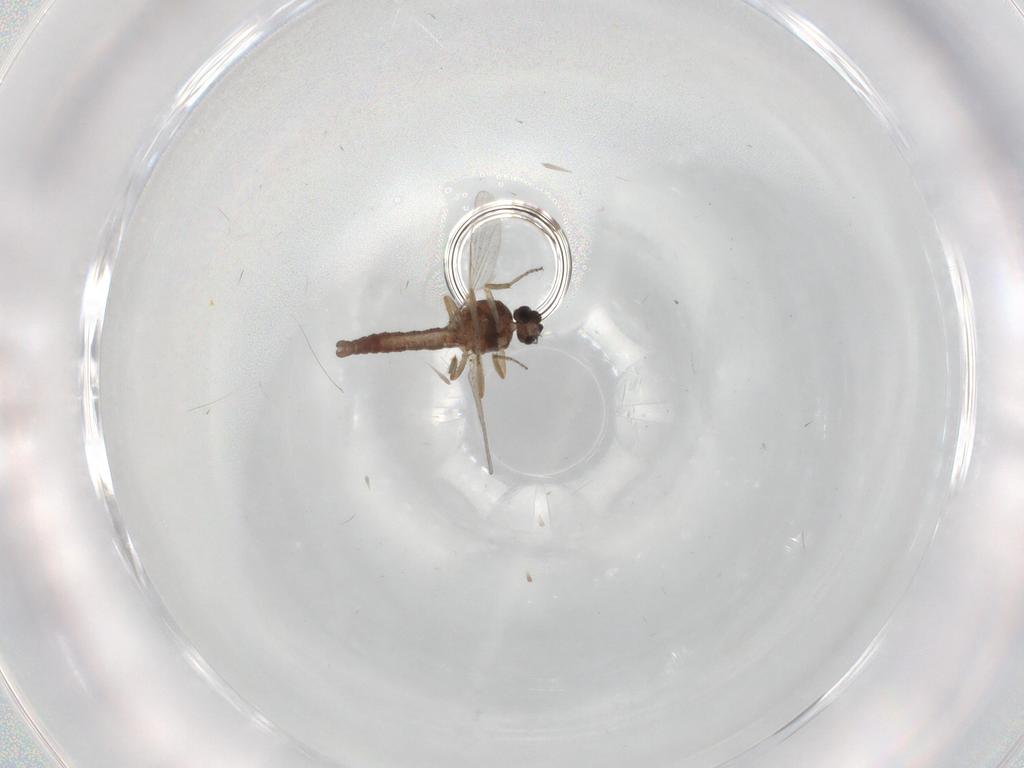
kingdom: Animalia
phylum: Arthropoda
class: Insecta
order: Diptera
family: Ceratopogonidae
